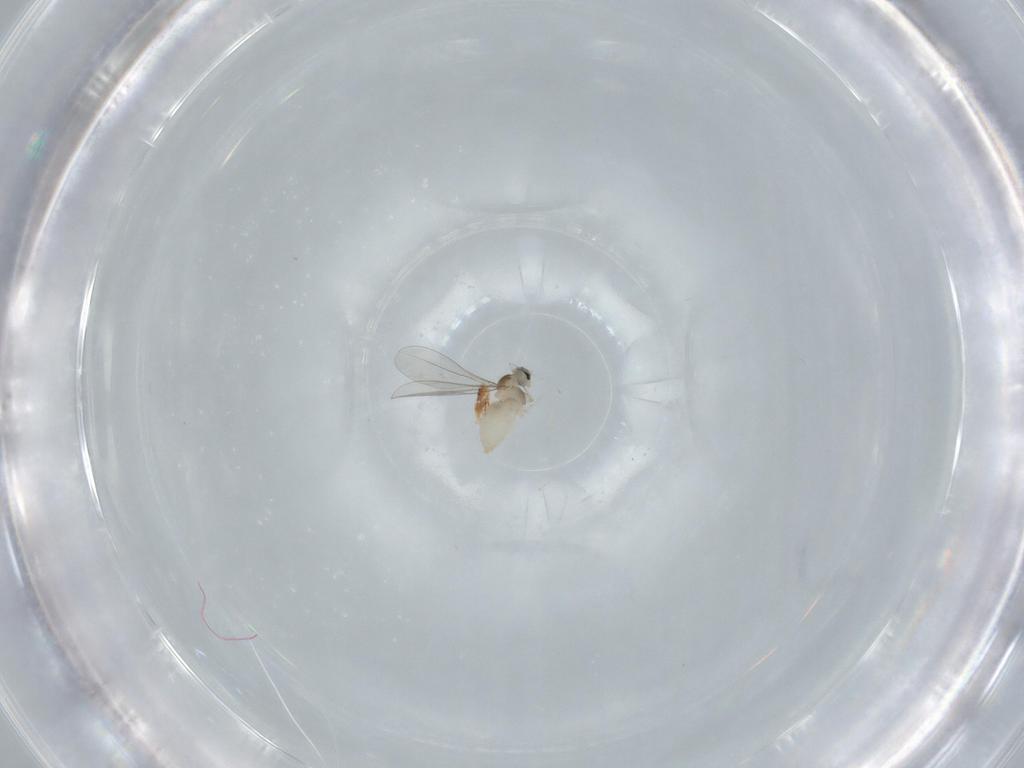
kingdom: Animalia
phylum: Arthropoda
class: Insecta
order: Diptera
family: Cecidomyiidae
